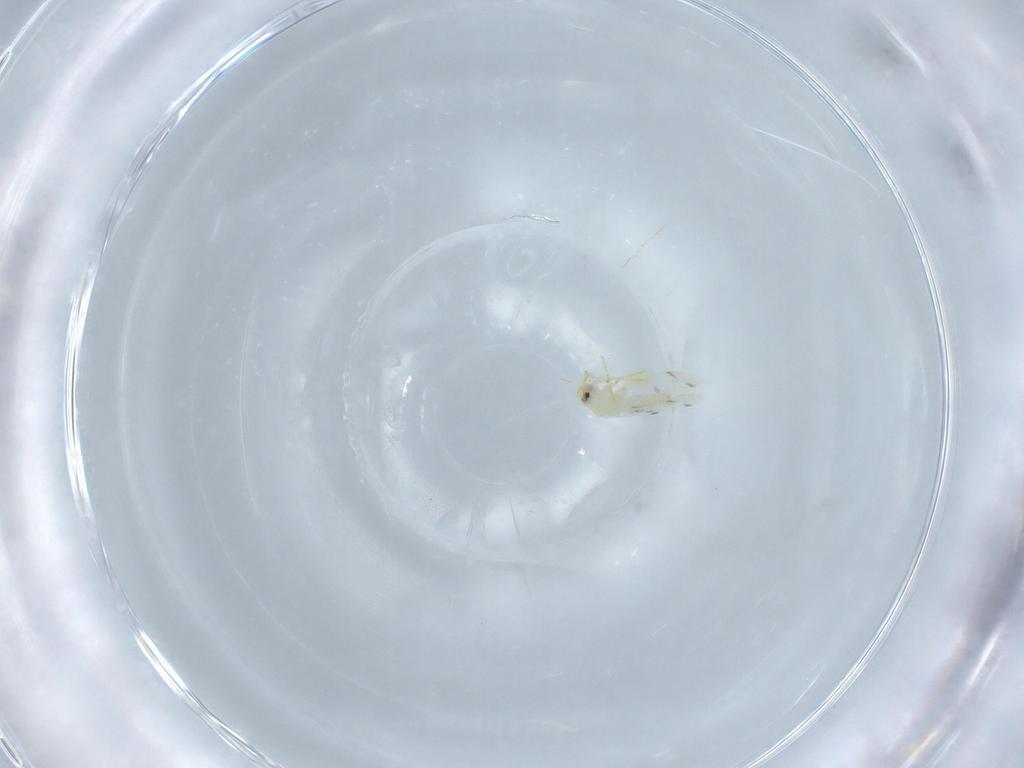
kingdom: Animalia
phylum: Arthropoda
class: Insecta
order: Hemiptera
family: Aleyrodidae
